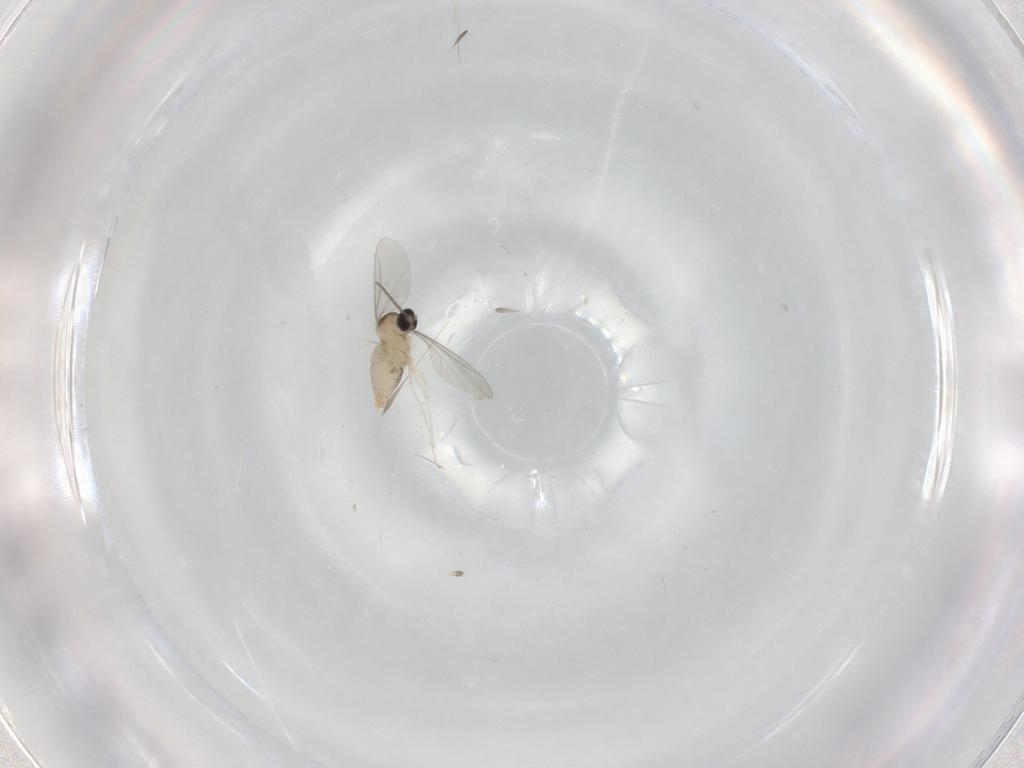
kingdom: Animalia
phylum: Arthropoda
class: Insecta
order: Diptera
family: Cecidomyiidae
